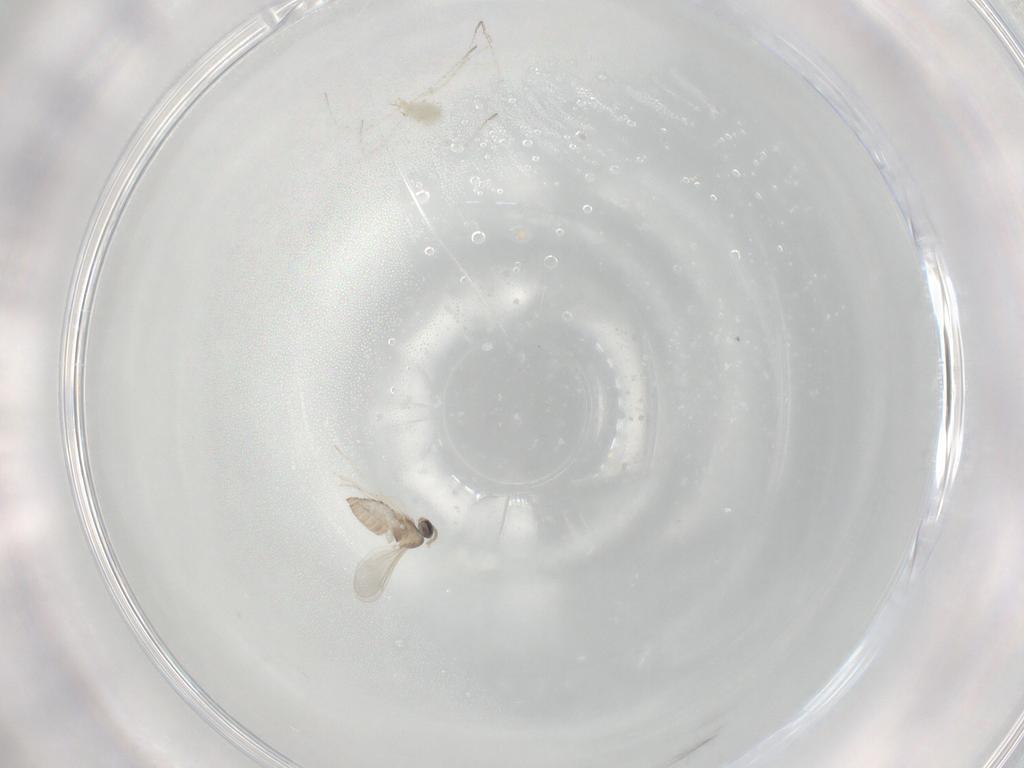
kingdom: Animalia
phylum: Arthropoda
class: Insecta
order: Diptera
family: Cecidomyiidae
